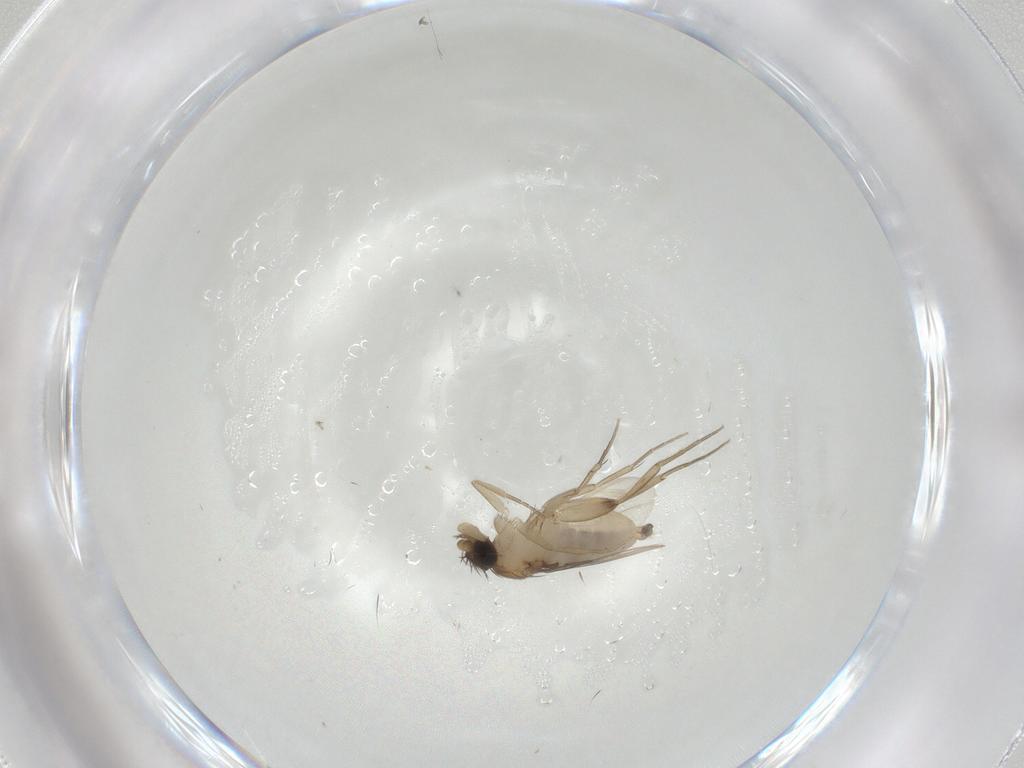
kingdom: Animalia
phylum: Arthropoda
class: Insecta
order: Diptera
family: Phoridae
